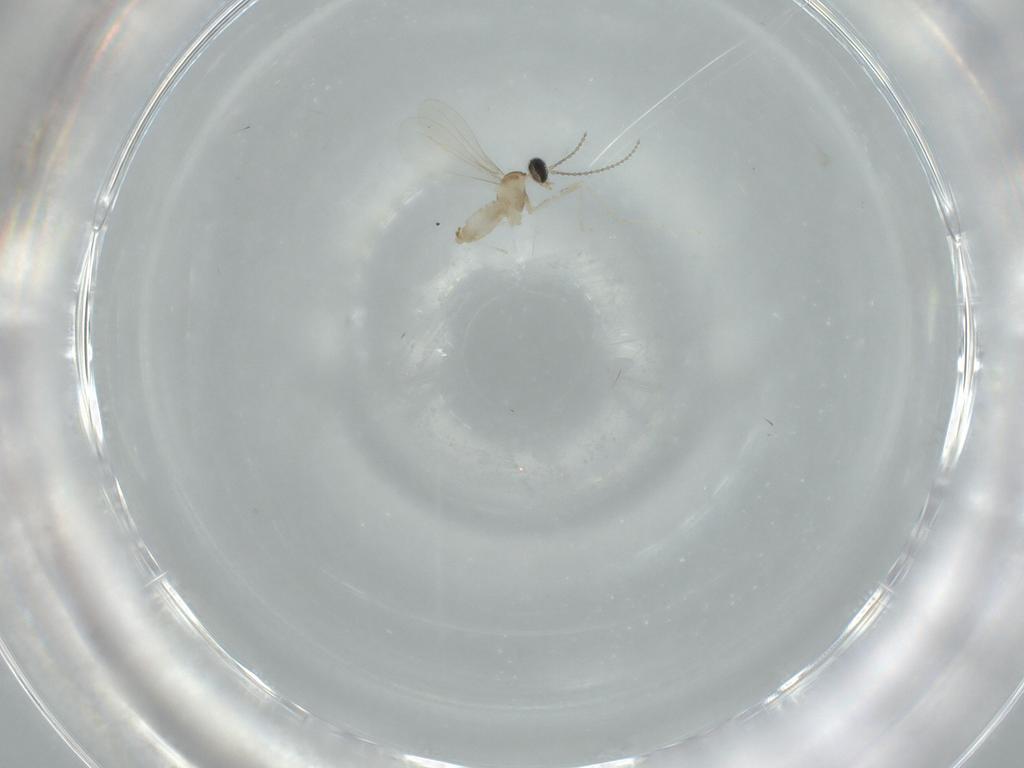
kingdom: Animalia
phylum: Arthropoda
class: Insecta
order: Diptera
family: Cecidomyiidae
